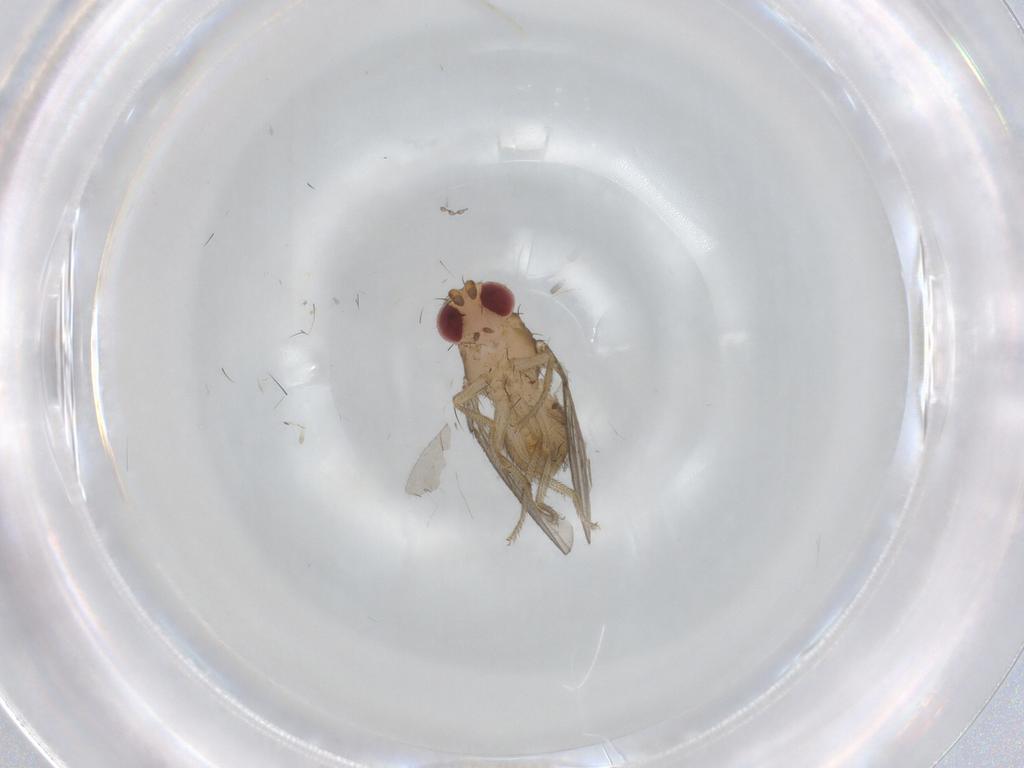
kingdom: Animalia
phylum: Arthropoda
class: Insecta
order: Diptera
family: Drosophilidae
